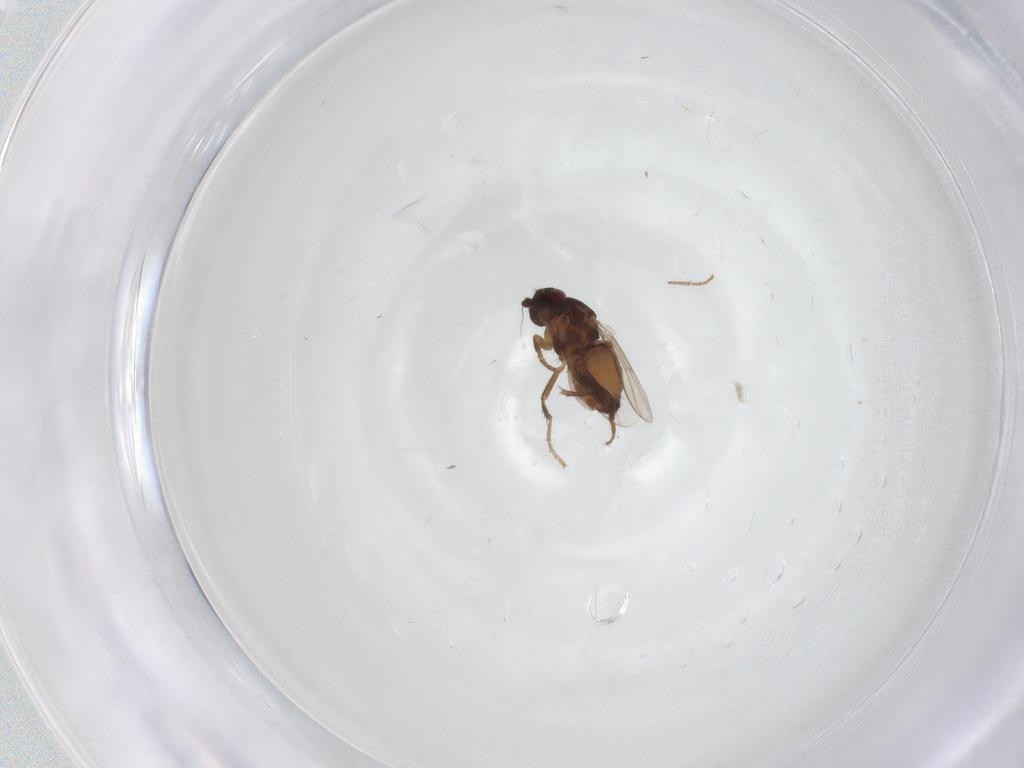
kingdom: Animalia
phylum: Arthropoda
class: Insecta
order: Diptera
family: Sphaeroceridae
